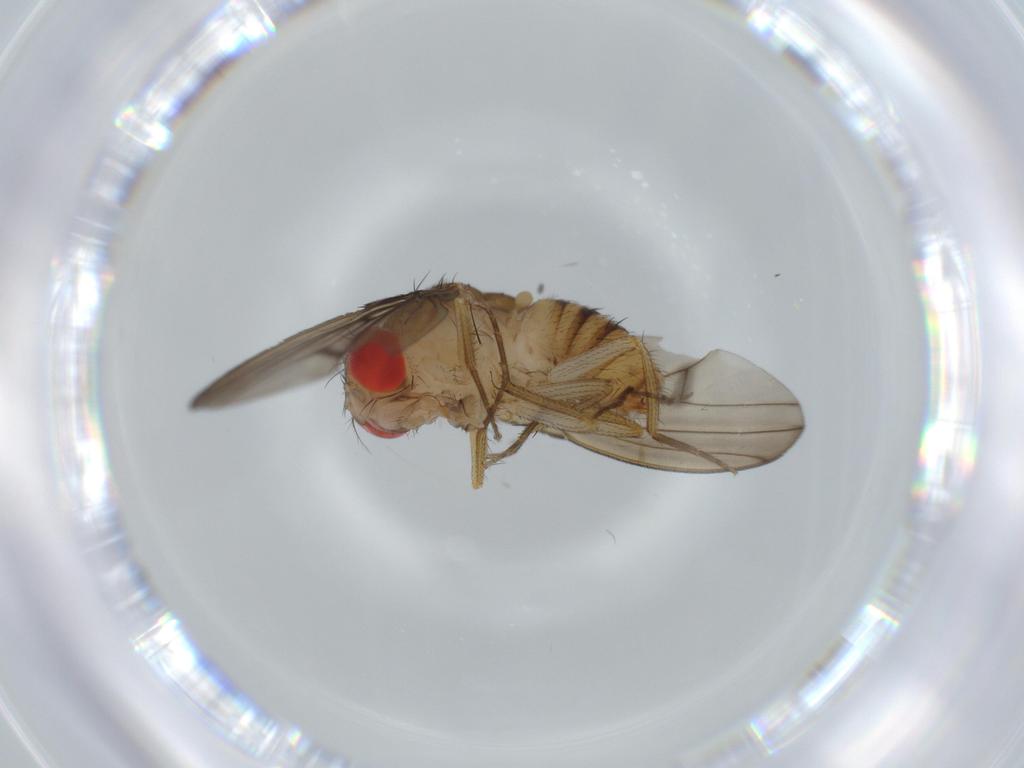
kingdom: Animalia
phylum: Arthropoda
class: Insecta
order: Diptera
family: Drosophilidae
